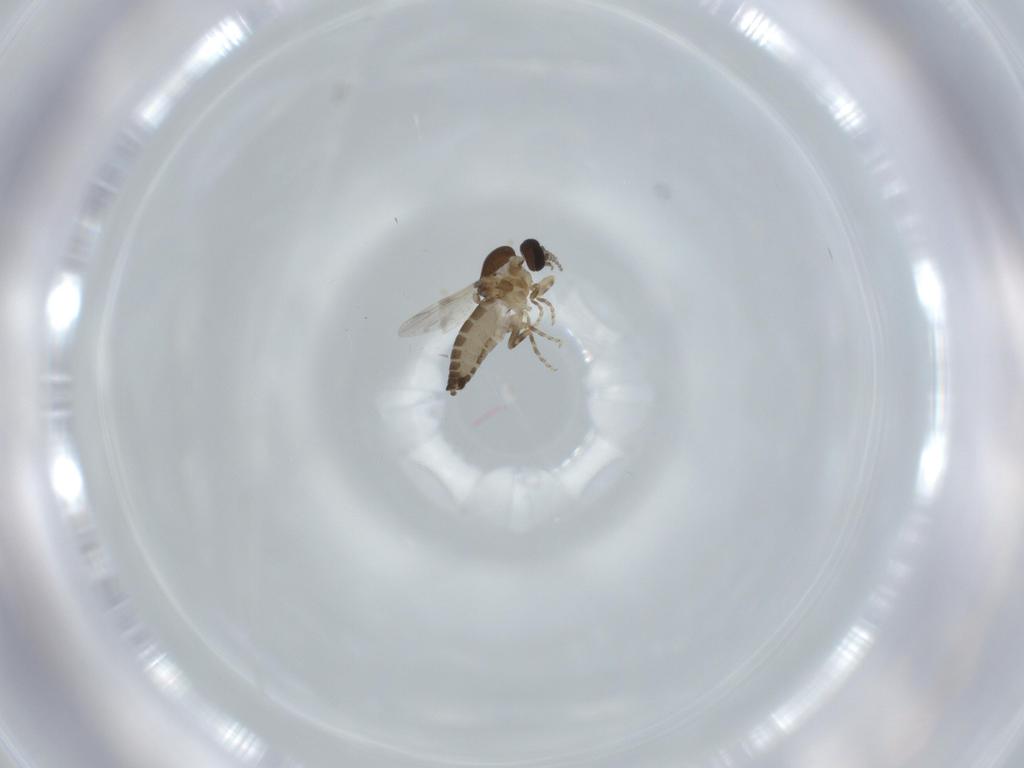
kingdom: Animalia
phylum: Arthropoda
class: Insecta
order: Diptera
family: Ceratopogonidae
